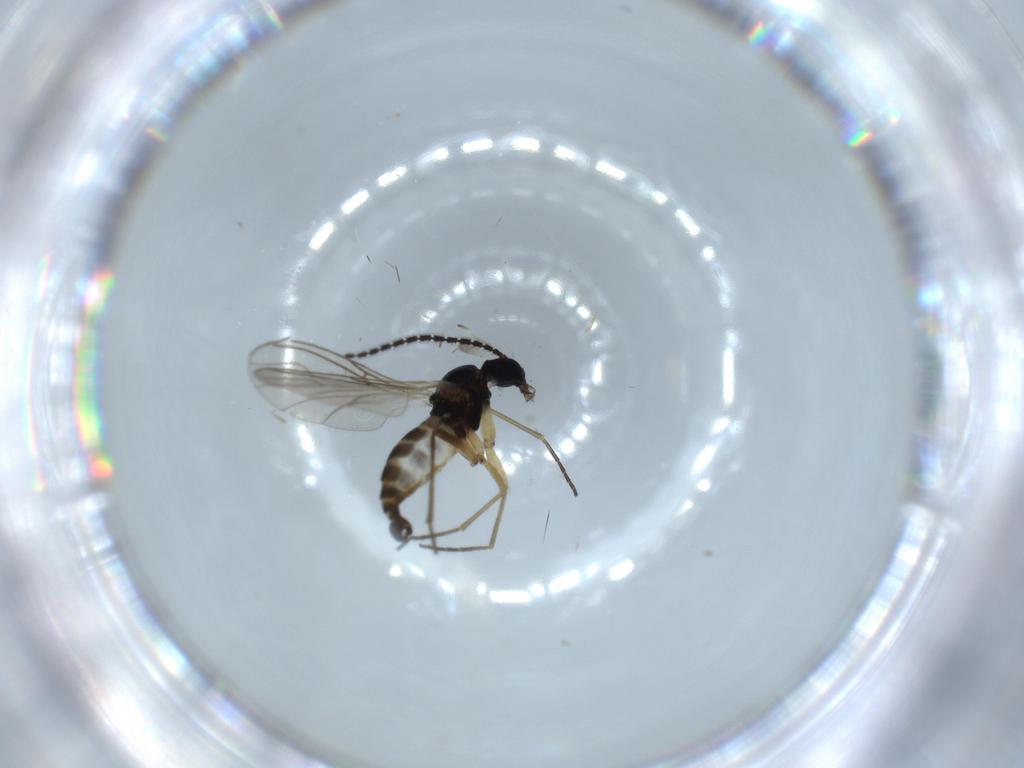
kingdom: Animalia
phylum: Arthropoda
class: Insecta
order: Diptera
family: Sciaridae
